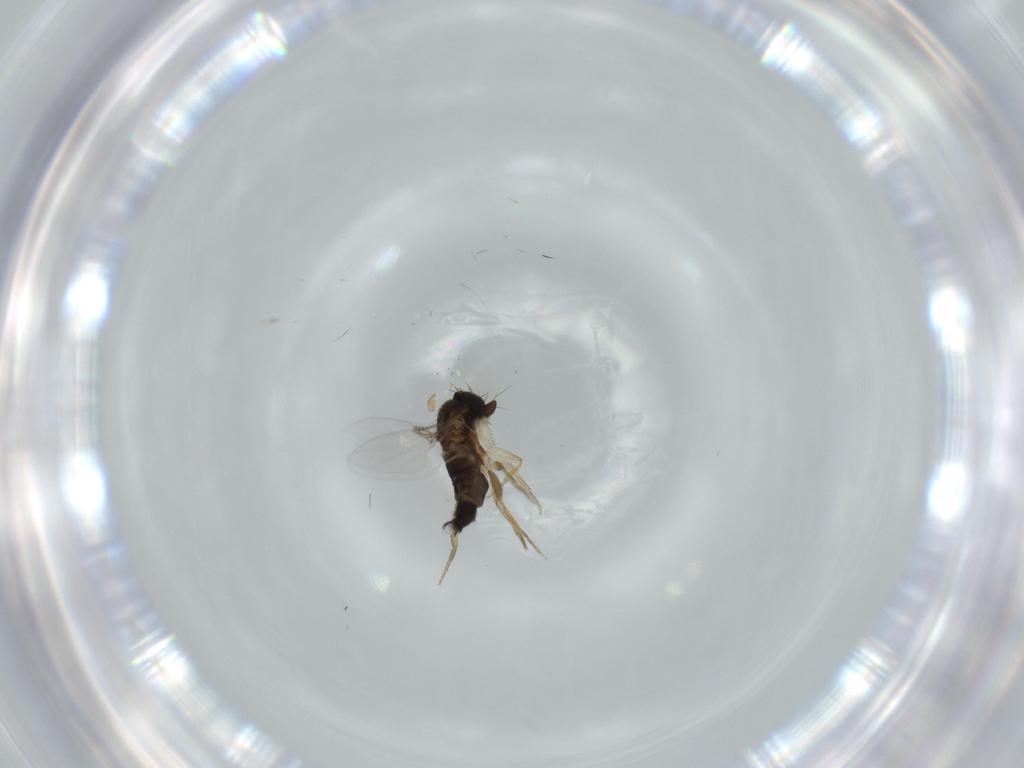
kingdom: Animalia
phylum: Arthropoda
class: Insecta
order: Diptera
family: Phoridae
